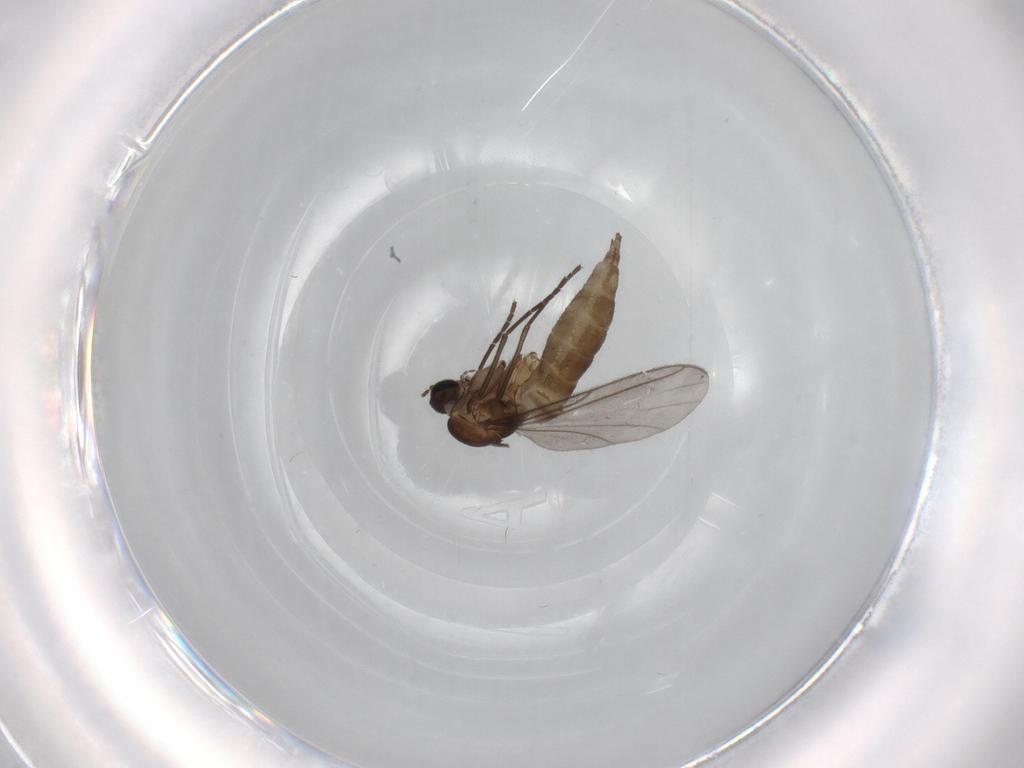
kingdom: Animalia
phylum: Arthropoda
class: Insecta
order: Diptera
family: Sciaridae
